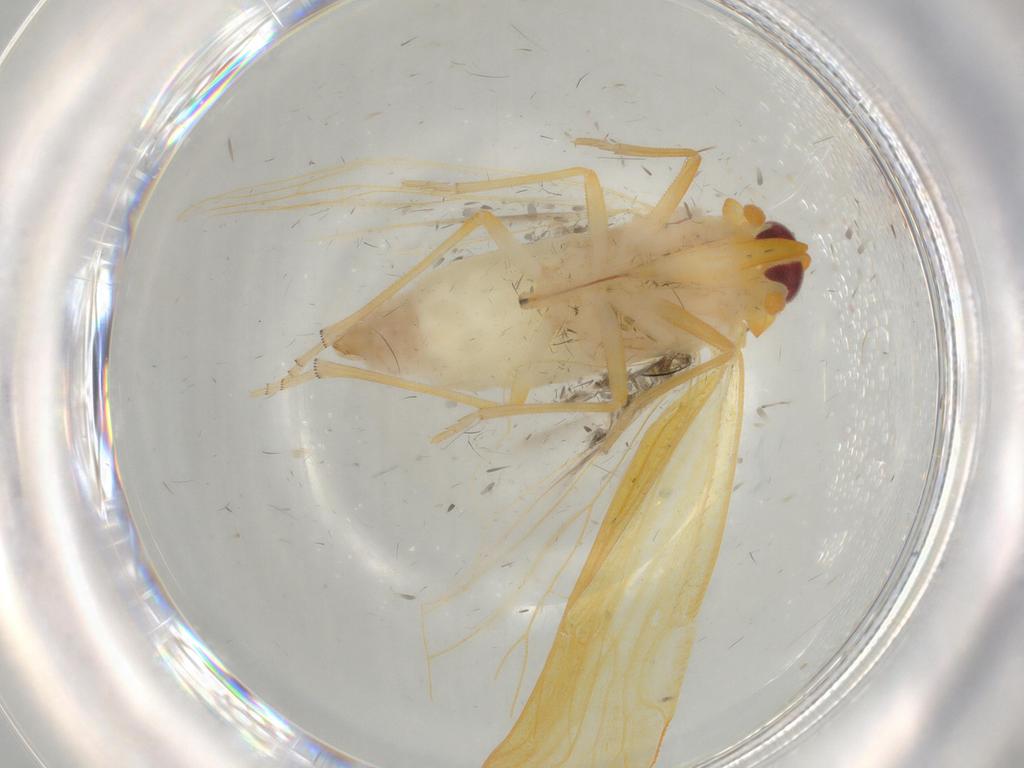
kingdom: Animalia
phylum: Arthropoda
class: Insecta
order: Hemiptera
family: Derbidae
